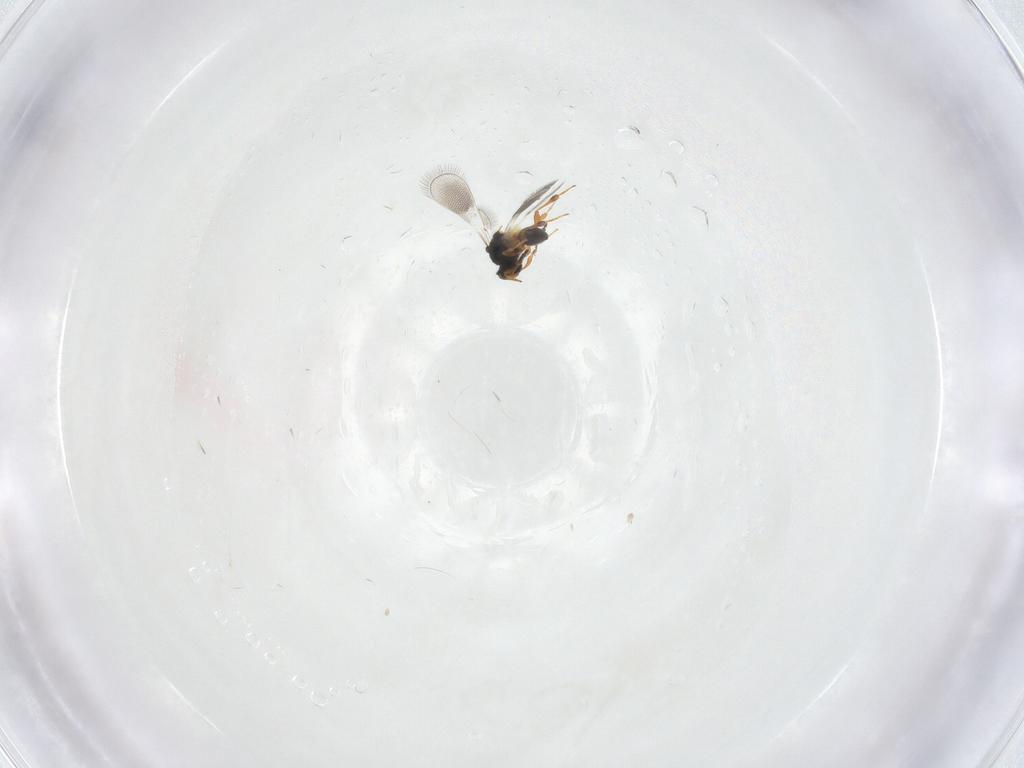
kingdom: Animalia
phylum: Arthropoda
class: Insecta
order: Hymenoptera
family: Platygastridae
